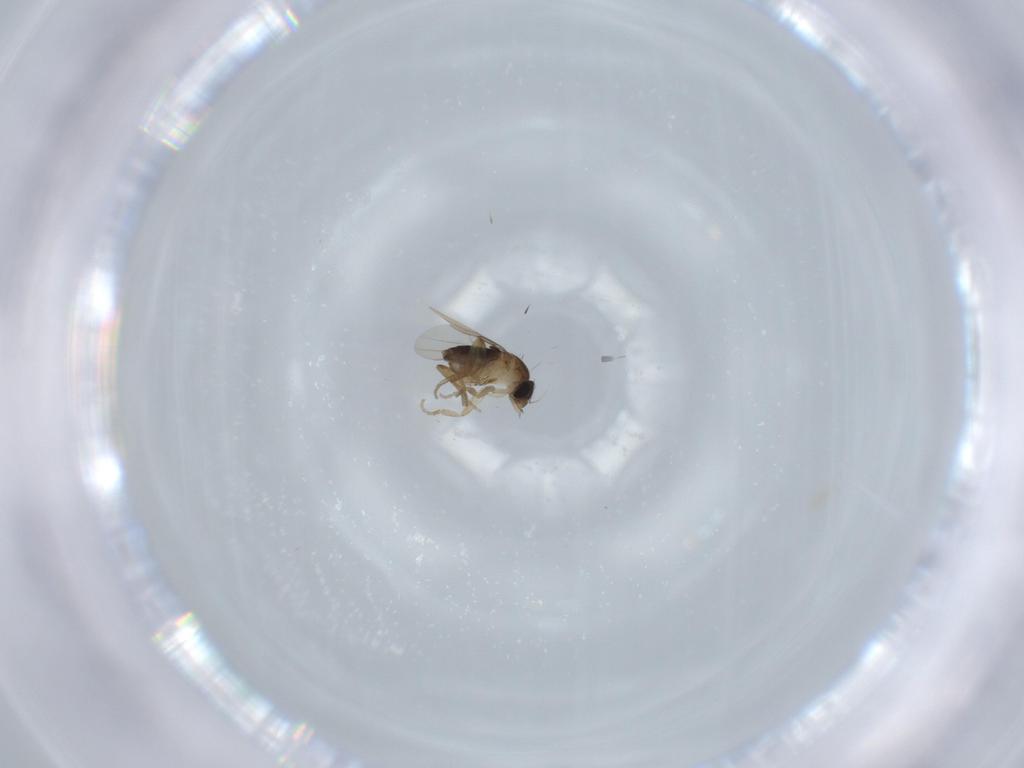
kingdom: Animalia
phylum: Arthropoda
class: Insecta
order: Diptera
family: Phoridae
